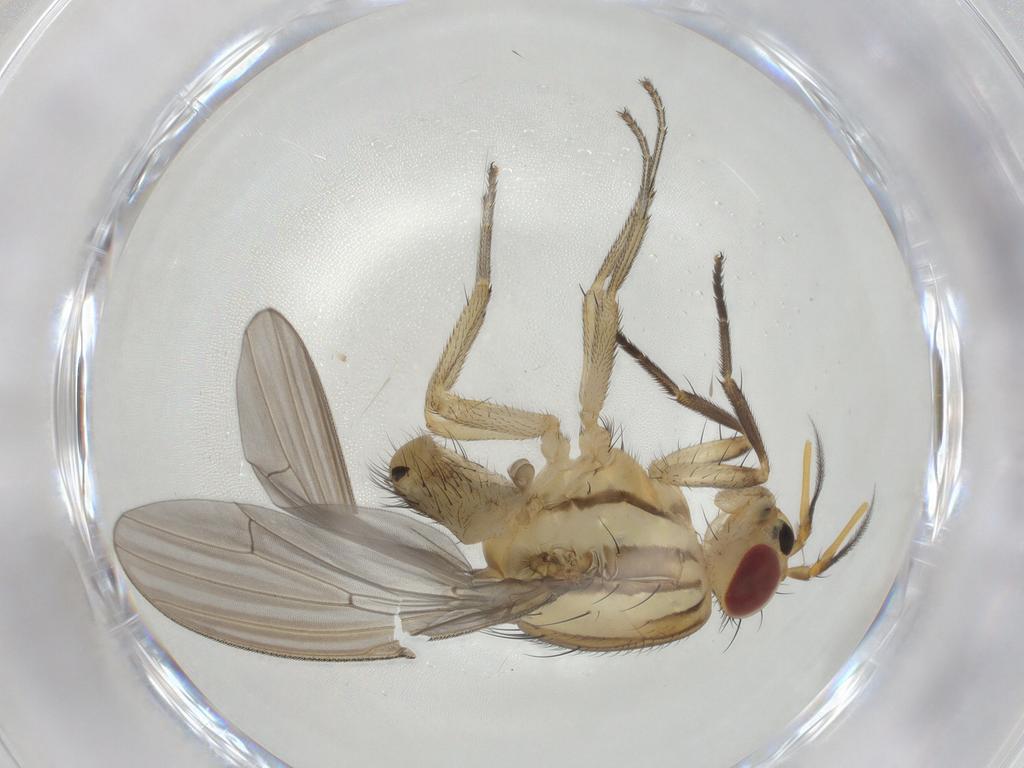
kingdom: Animalia
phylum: Arthropoda
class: Insecta
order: Diptera
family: Lauxaniidae
